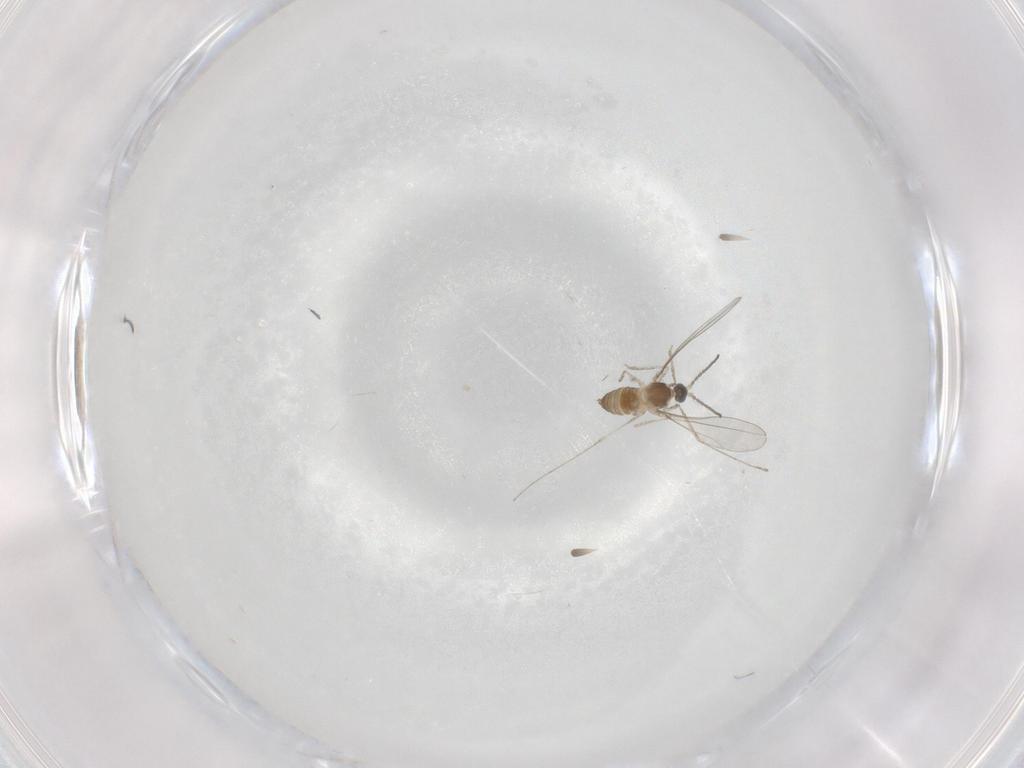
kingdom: Animalia
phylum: Arthropoda
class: Insecta
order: Diptera
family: Cecidomyiidae
